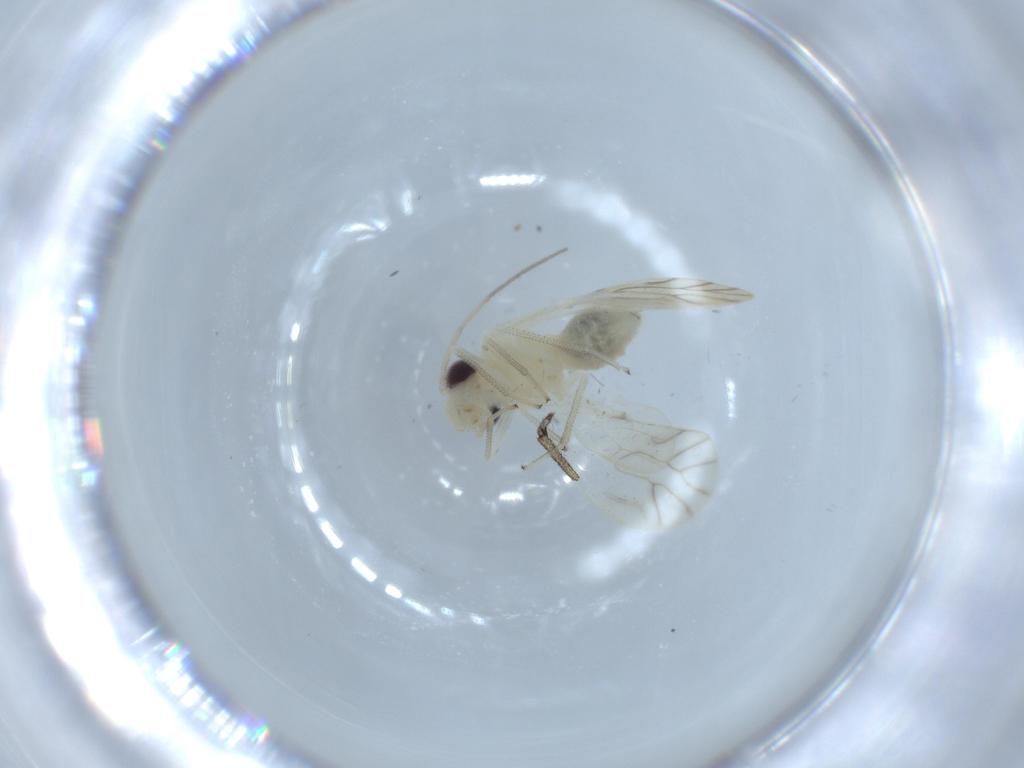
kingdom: Animalia
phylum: Arthropoda
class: Insecta
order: Psocodea
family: Caeciliusidae
